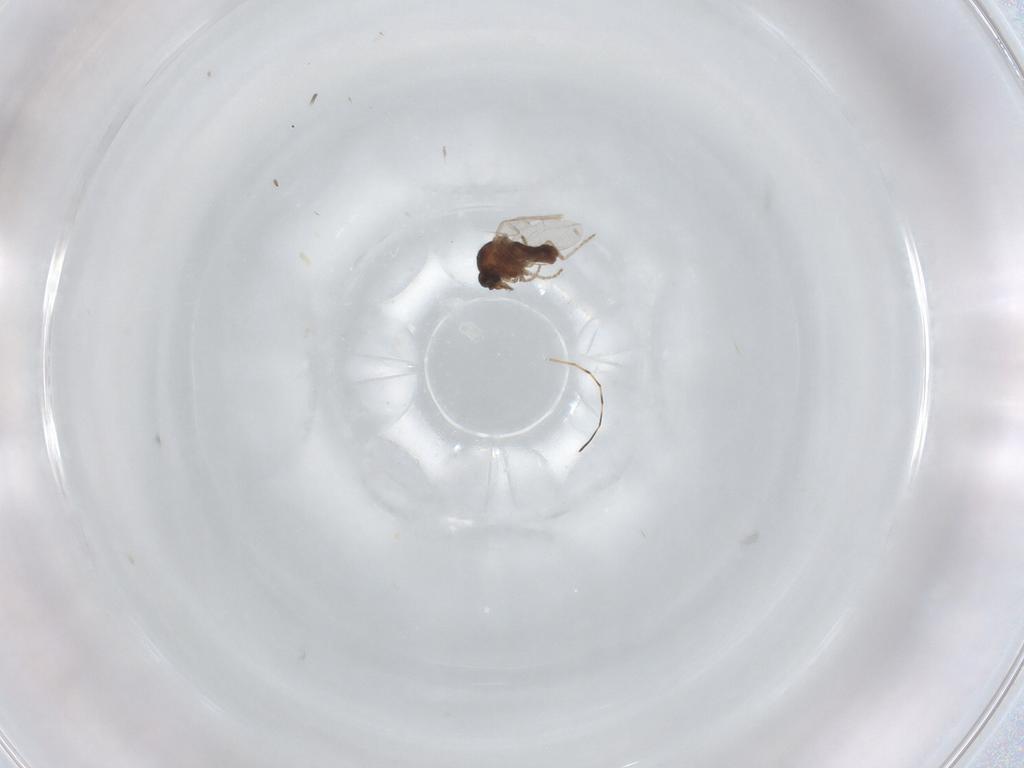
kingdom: Animalia
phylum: Arthropoda
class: Insecta
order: Diptera
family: Ceratopogonidae
